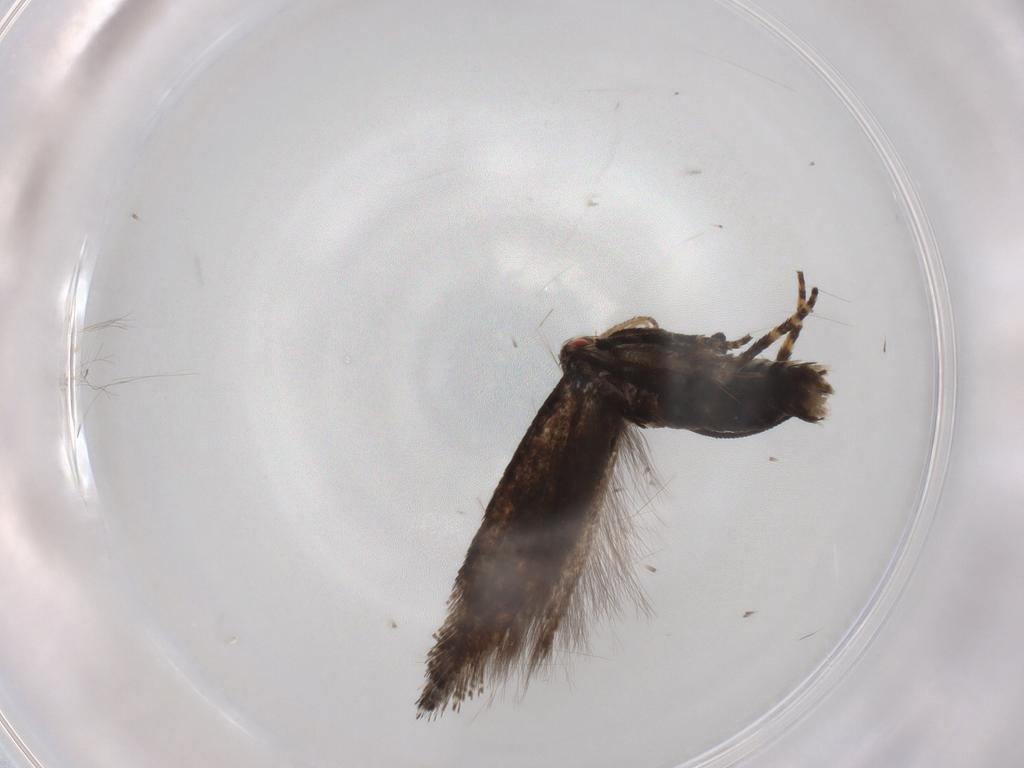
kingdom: Animalia
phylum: Arthropoda
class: Insecta
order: Lepidoptera
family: Momphidae
